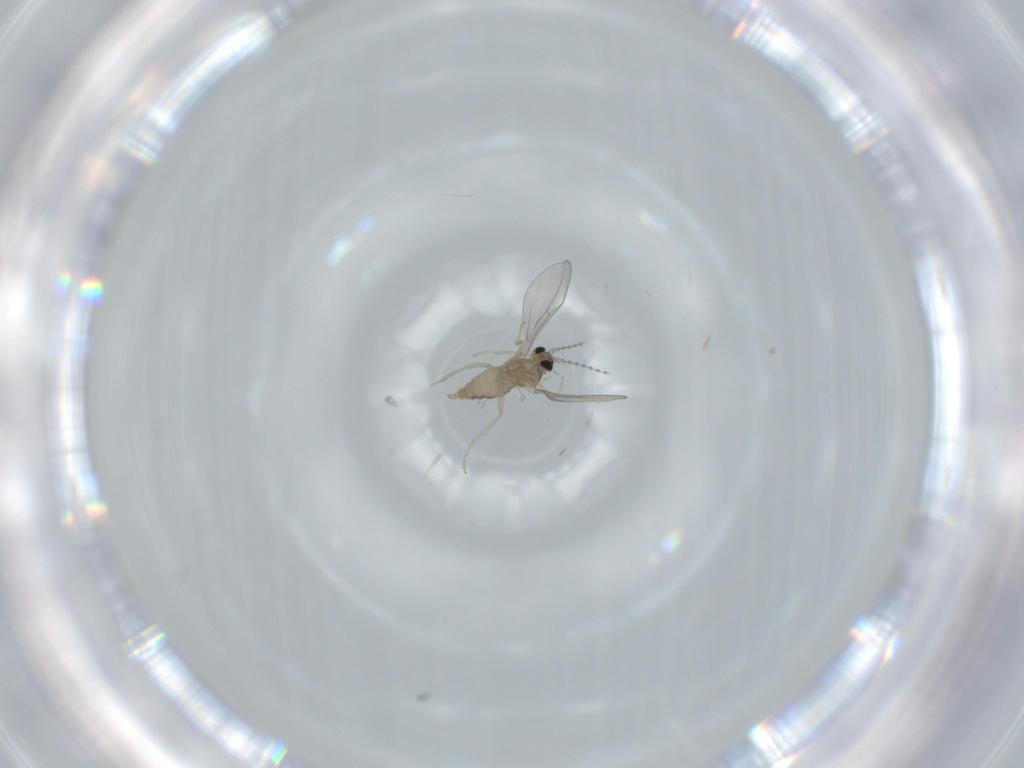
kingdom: Animalia
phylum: Arthropoda
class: Insecta
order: Diptera
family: Cecidomyiidae
